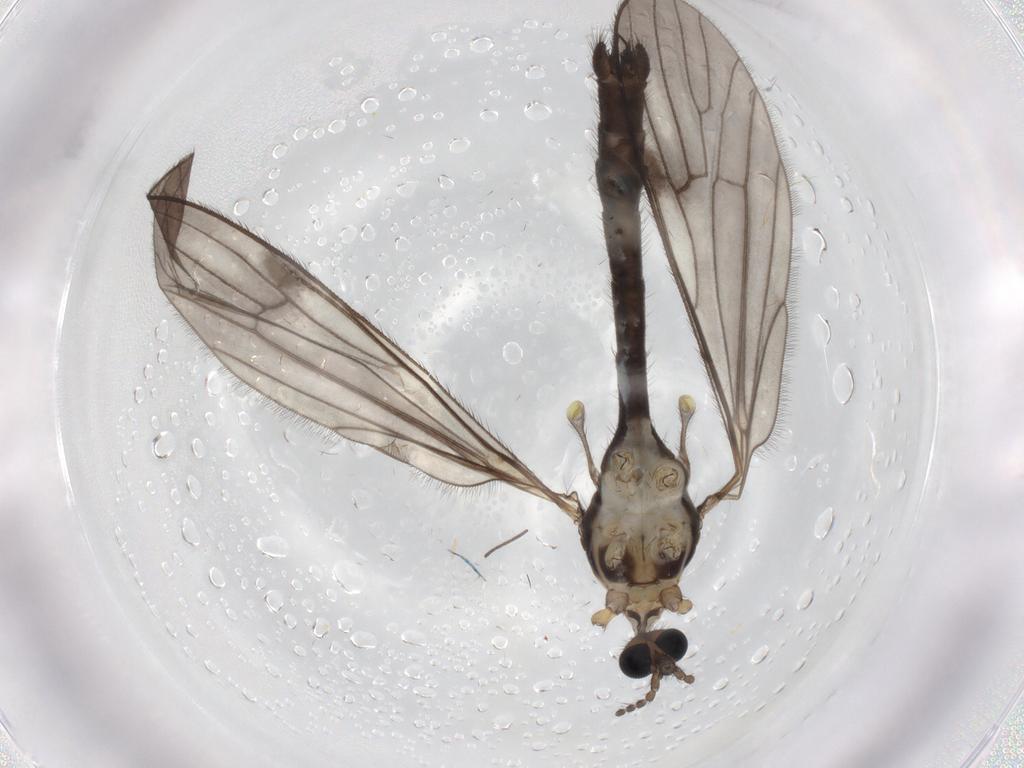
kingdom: Animalia
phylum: Arthropoda
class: Insecta
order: Diptera
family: Limoniidae
